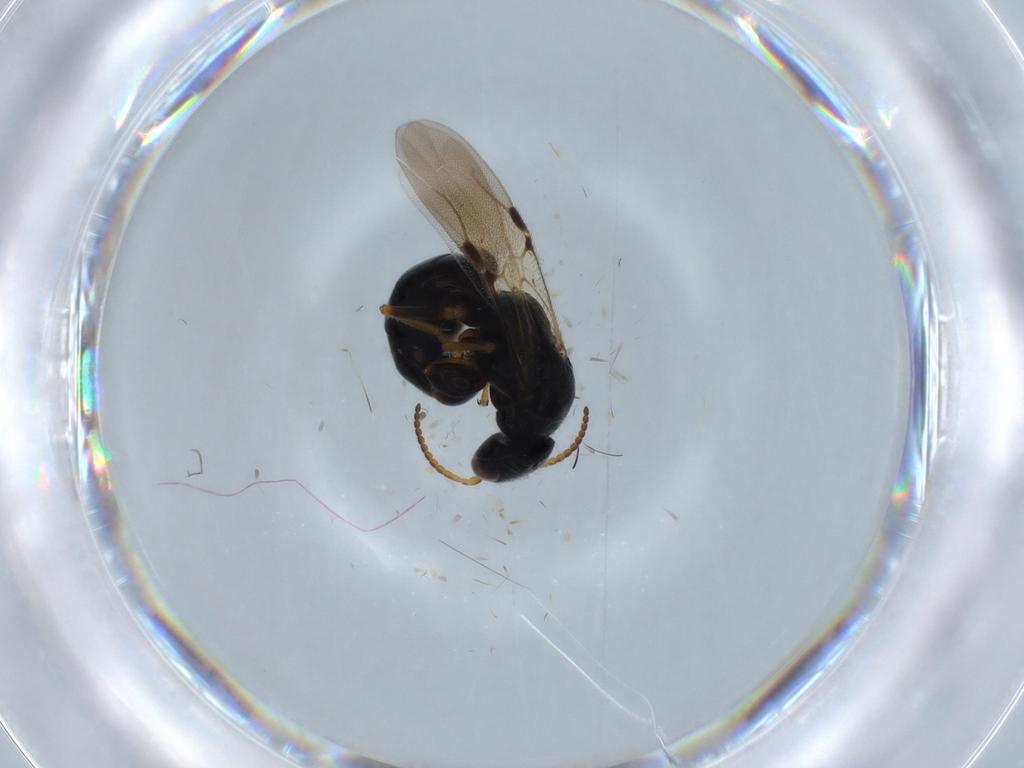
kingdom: Animalia
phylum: Arthropoda
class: Insecta
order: Hymenoptera
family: Bethylidae
